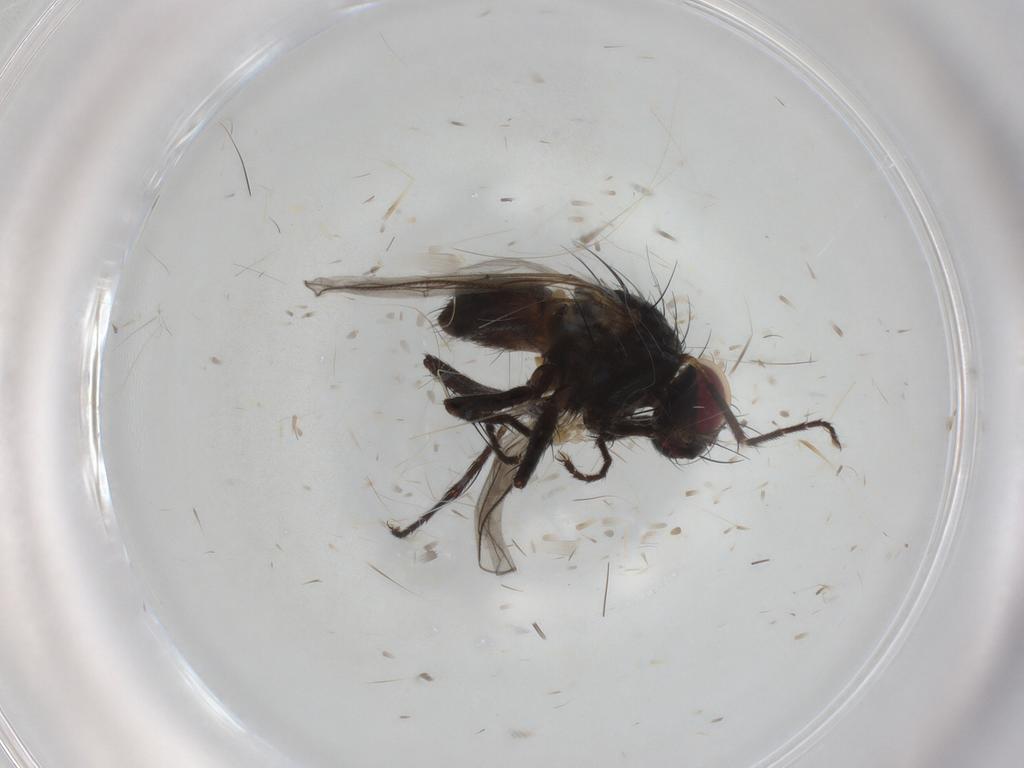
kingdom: Animalia
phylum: Arthropoda
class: Insecta
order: Diptera
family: Muscidae
